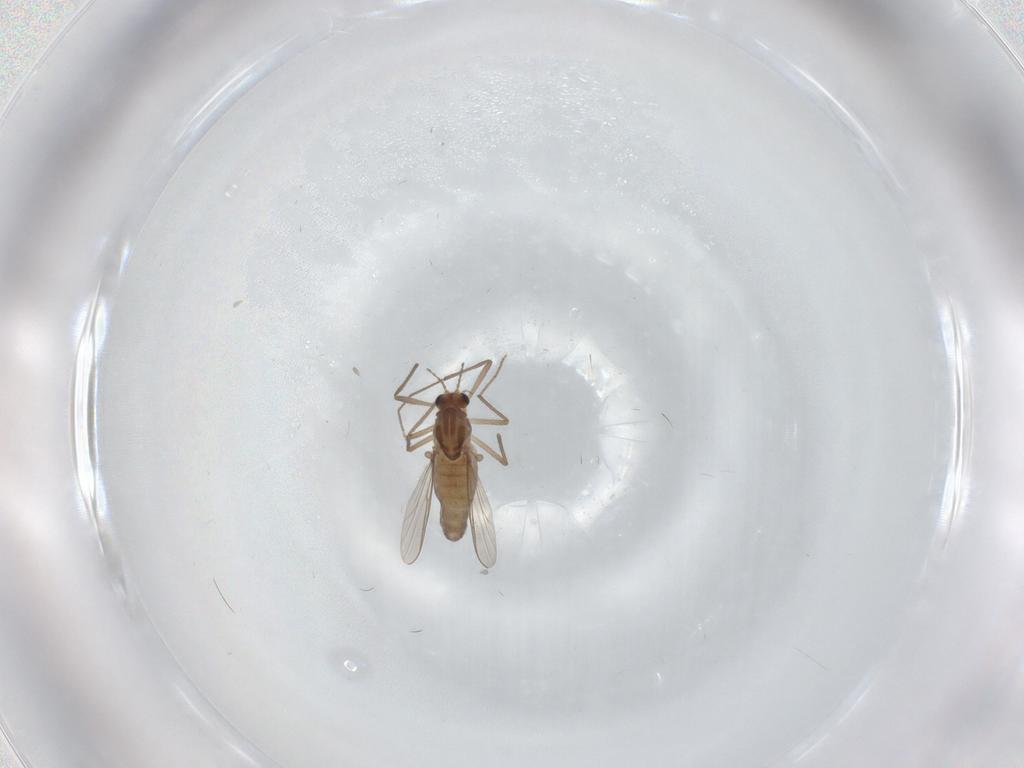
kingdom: Animalia
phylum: Arthropoda
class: Insecta
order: Diptera
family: Chironomidae
